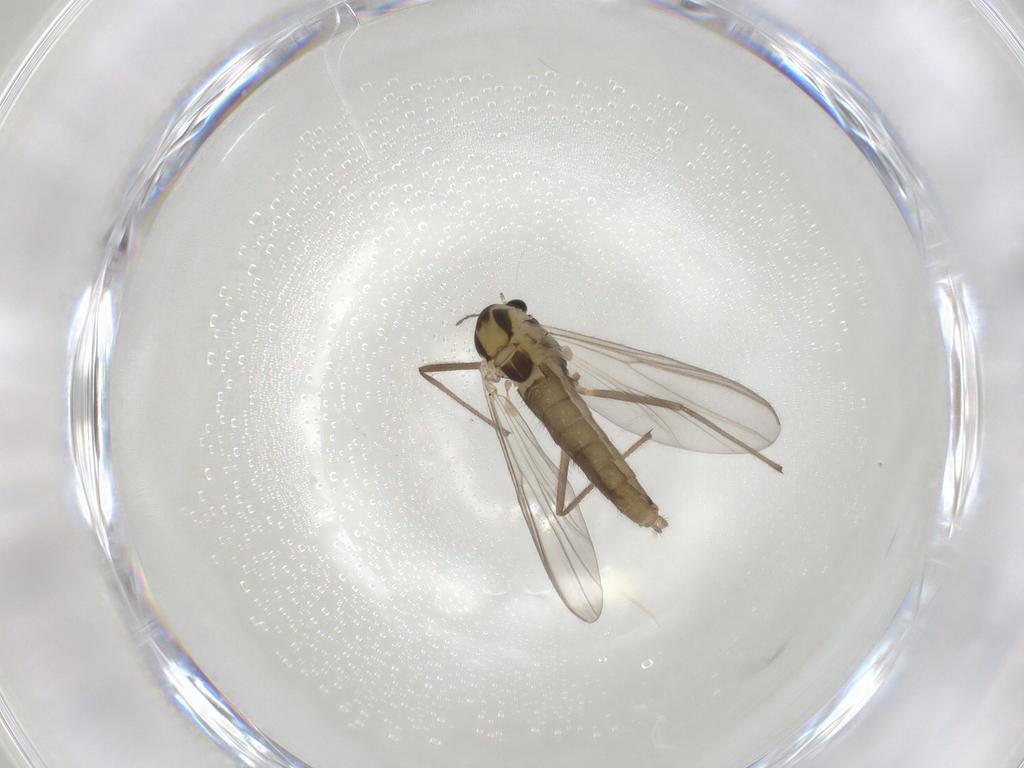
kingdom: Animalia
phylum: Arthropoda
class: Insecta
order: Diptera
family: Chironomidae
